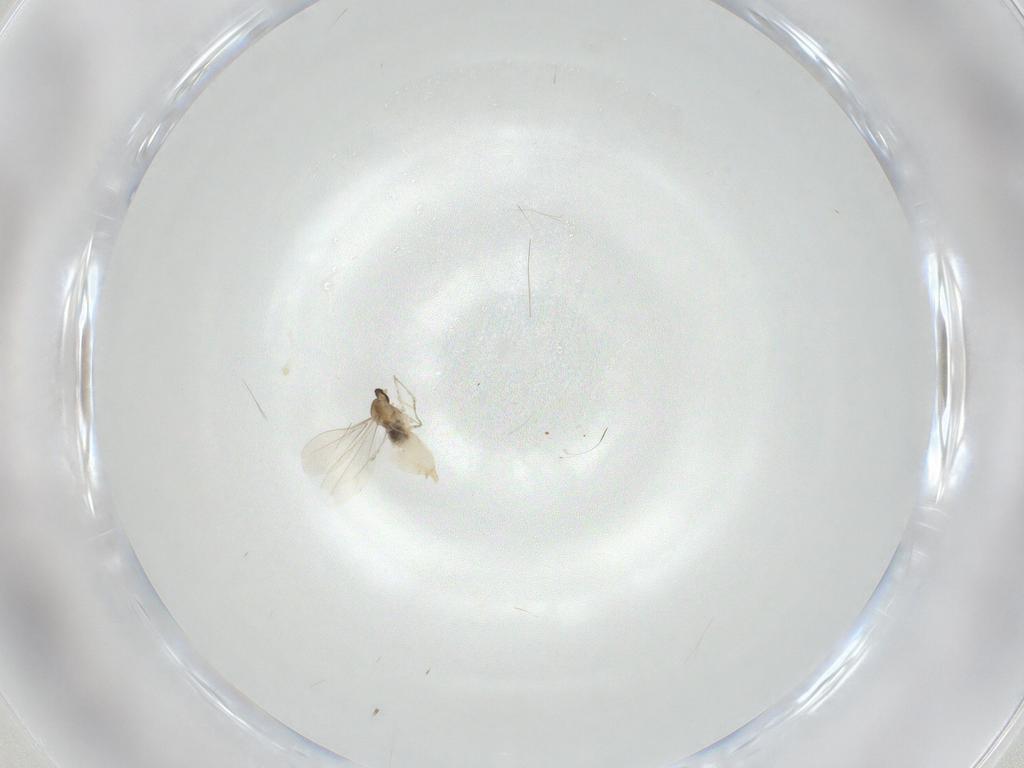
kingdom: Animalia
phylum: Arthropoda
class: Insecta
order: Diptera
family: Cecidomyiidae
